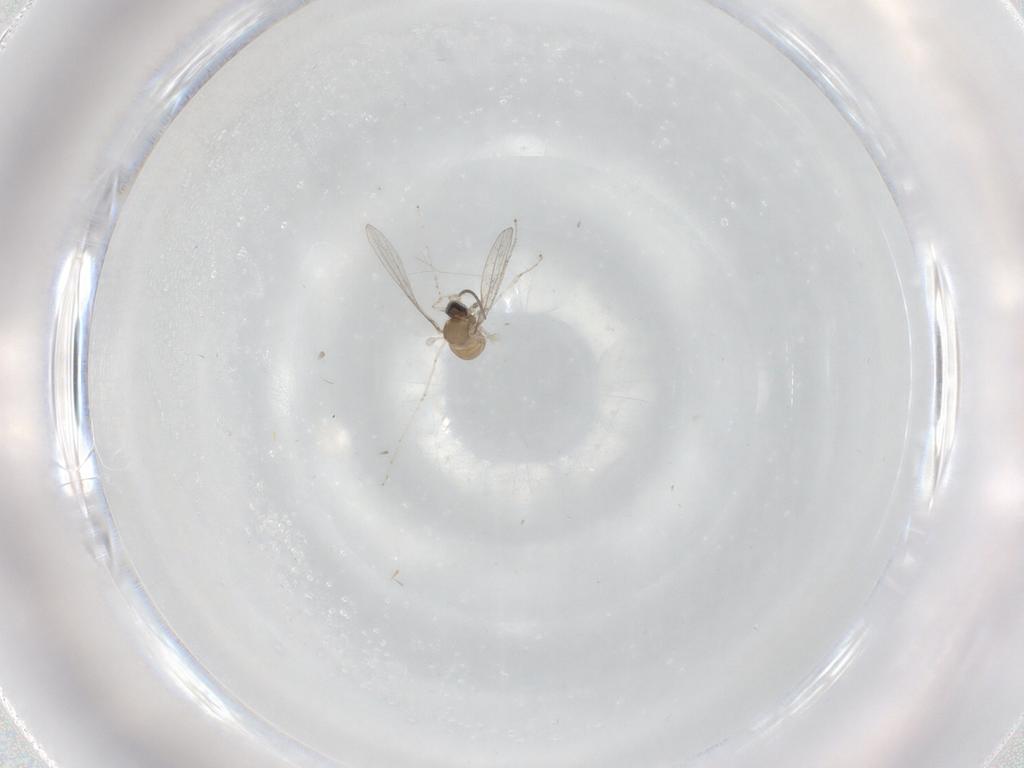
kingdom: Animalia
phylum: Arthropoda
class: Insecta
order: Diptera
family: Cecidomyiidae
